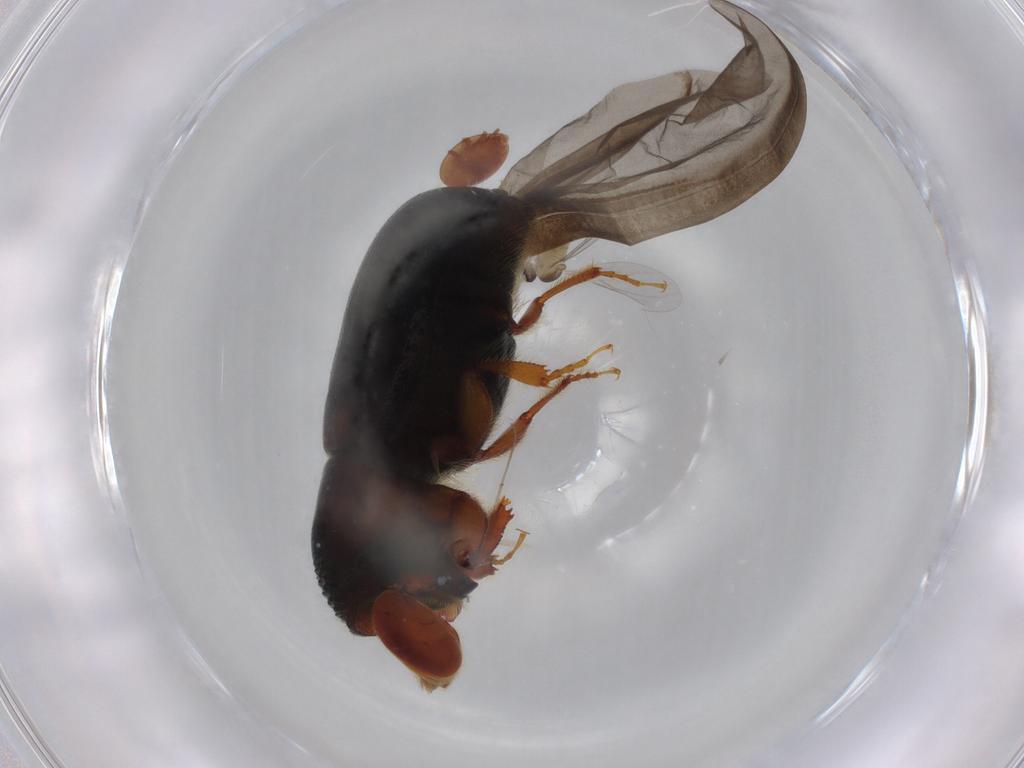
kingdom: Animalia
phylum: Arthropoda
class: Insecta
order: Coleoptera
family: Curculionidae
